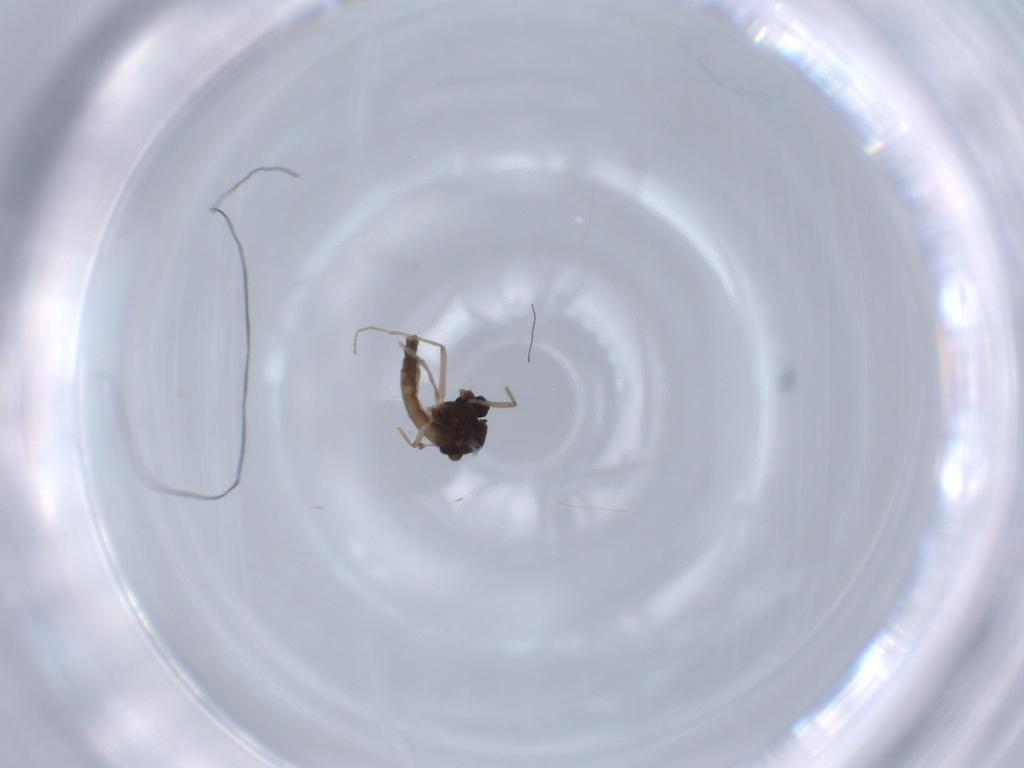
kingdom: Animalia
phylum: Arthropoda
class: Insecta
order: Diptera
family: Chironomidae
